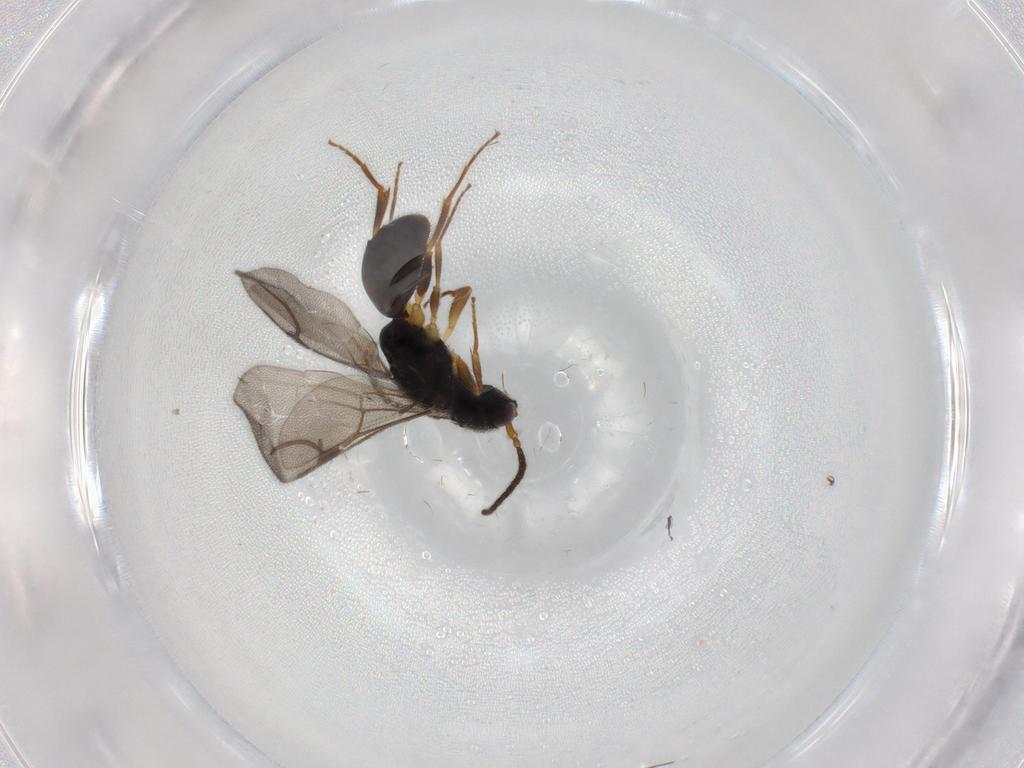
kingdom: Animalia
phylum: Arthropoda
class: Insecta
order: Hymenoptera
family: Bethylidae
